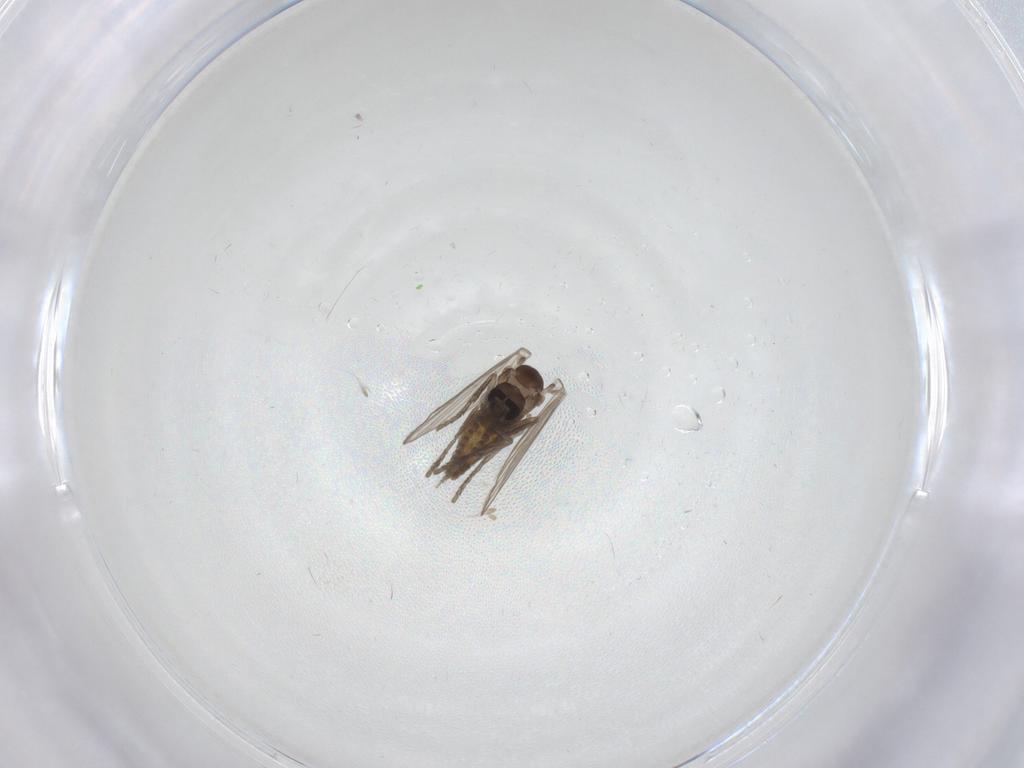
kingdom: Animalia
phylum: Arthropoda
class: Insecta
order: Diptera
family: Psychodidae
